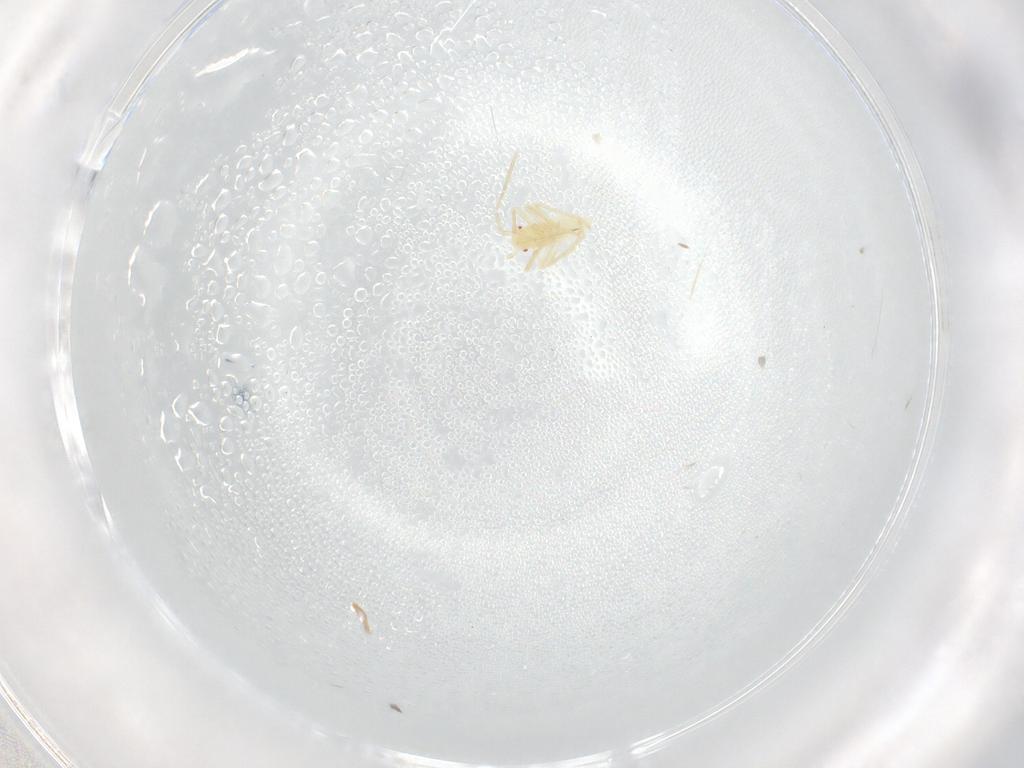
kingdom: Animalia
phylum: Arthropoda
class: Insecta
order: Hemiptera
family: Miridae
